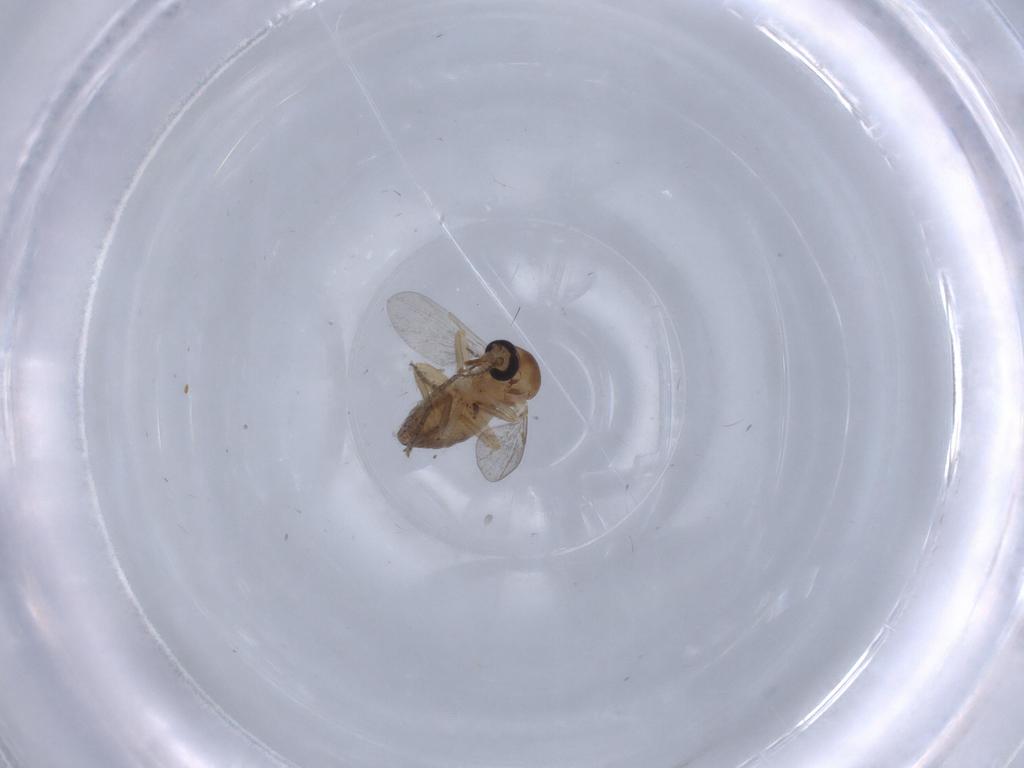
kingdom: Animalia
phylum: Arthropoda
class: Insecta
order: Diptera
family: Ceratopogonidae
